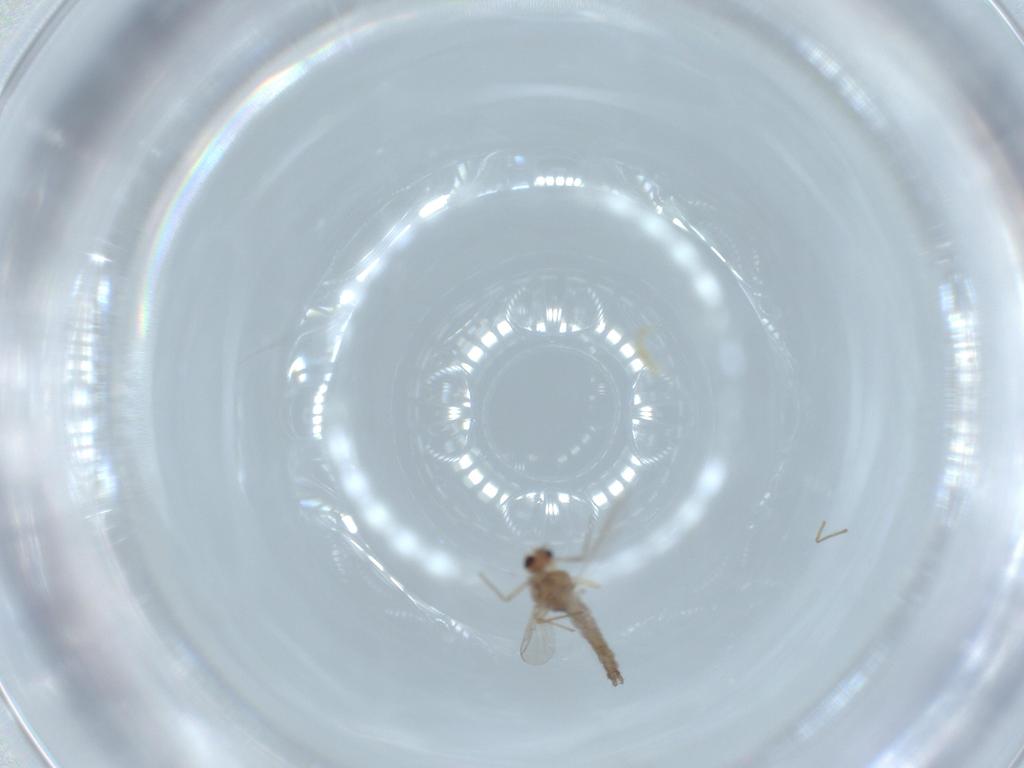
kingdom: Animalia
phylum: Arthropoda
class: Insecta
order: Diptera
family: Chironomidae
